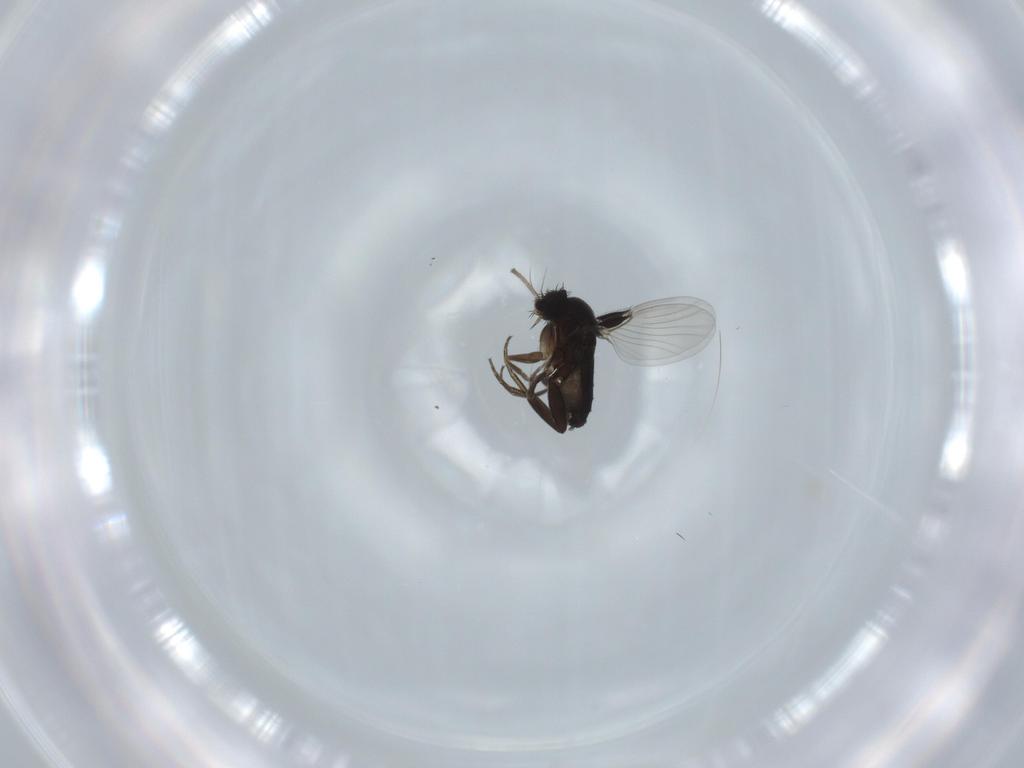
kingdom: Animalia
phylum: Arthropoda
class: Insecta
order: Diptera
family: Phoridae
